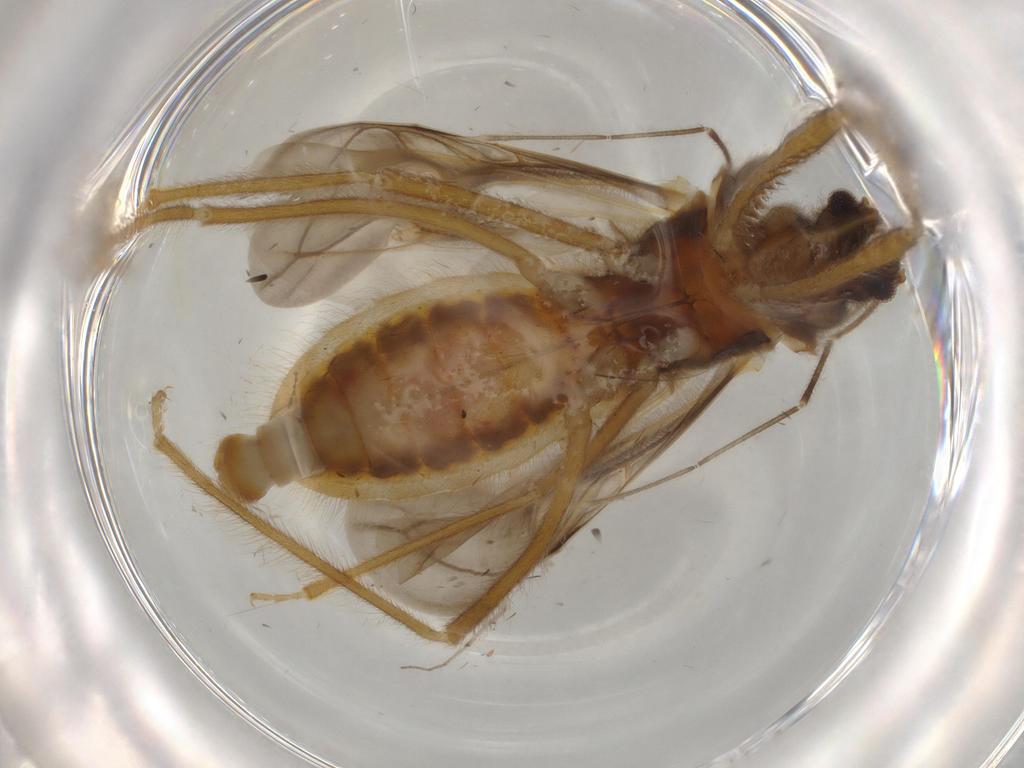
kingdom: Animalia
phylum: Arthropoda
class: Insecta
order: Hemiptera
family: Reduviidae
